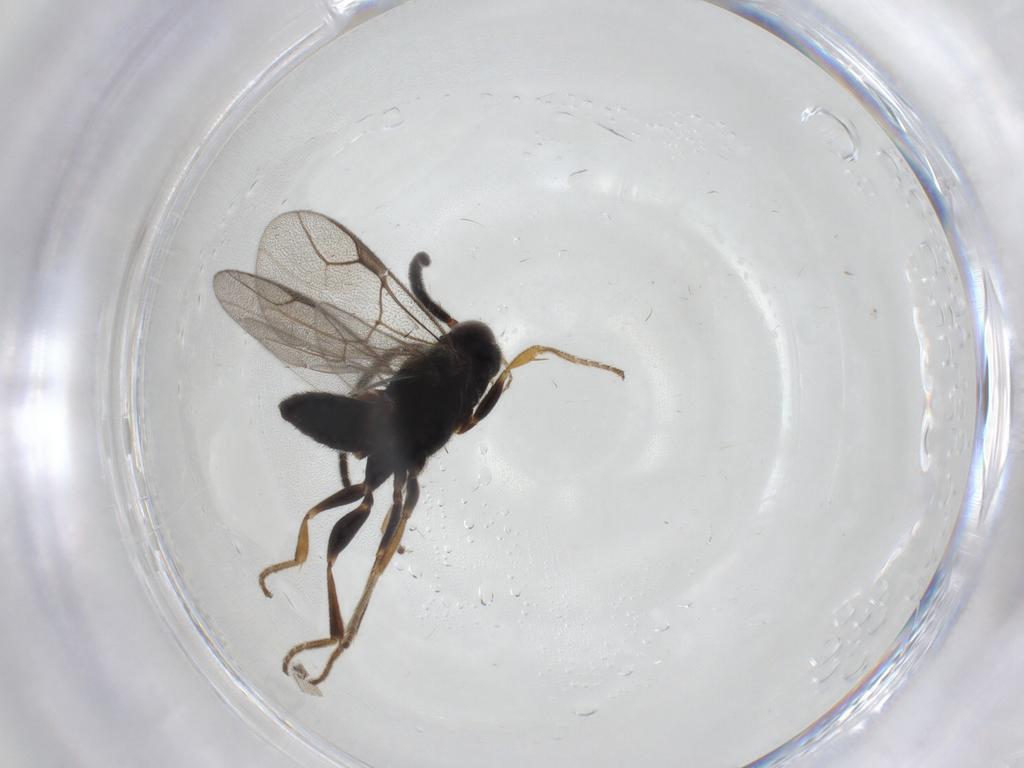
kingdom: Animalia
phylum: Arthropoda
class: Insecta
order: Hymenoptera
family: Dryinidae
